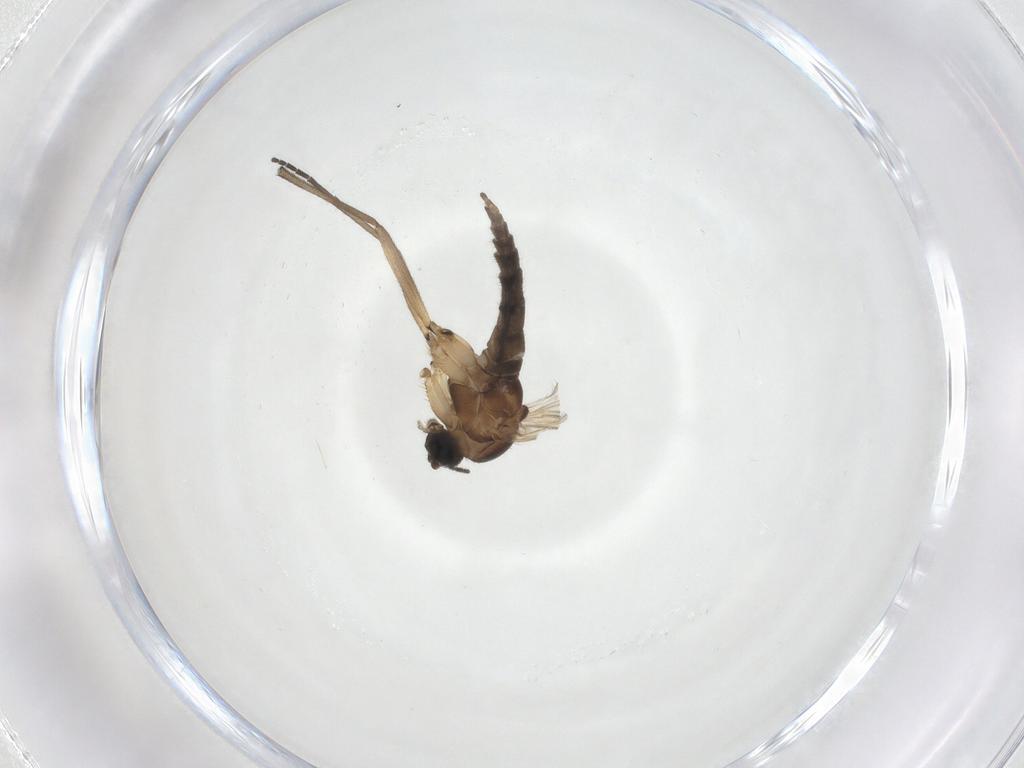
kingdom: Animalia
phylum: Arthropoda
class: Insecta
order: Diptera
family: Sciaridae
